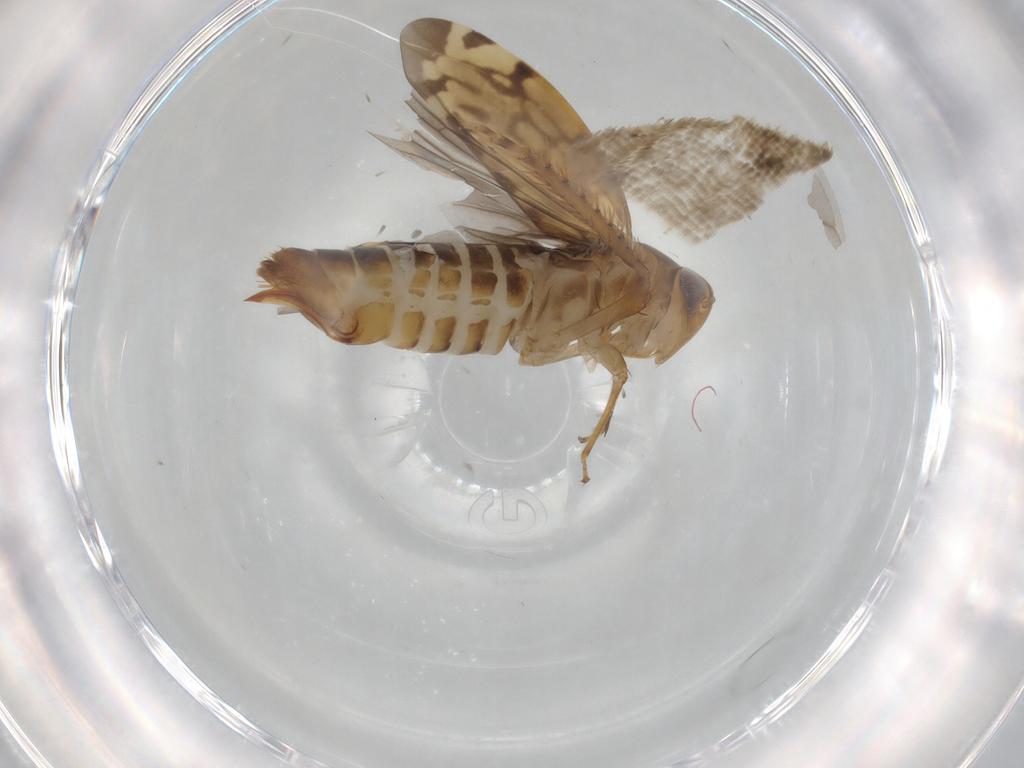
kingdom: Animalia
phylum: Arthropoda
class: Insecta
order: Hemiptera
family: Cicadellidae
